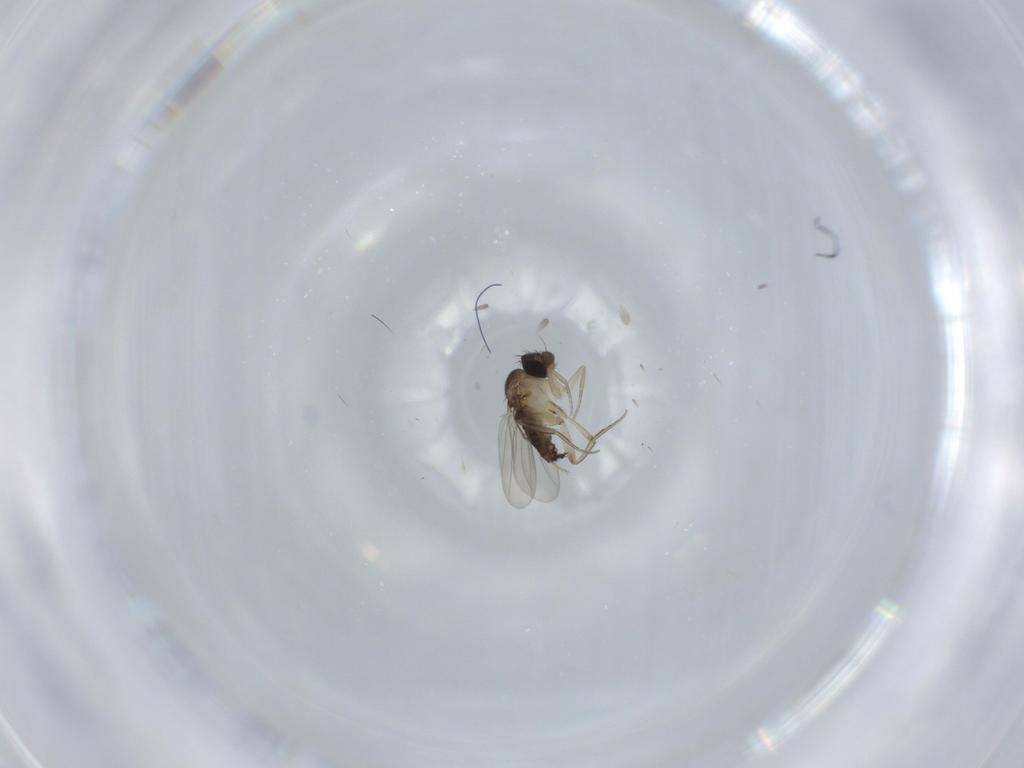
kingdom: Animalia
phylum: Arthropoda
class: Insecta
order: Diptera
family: Phoridae
